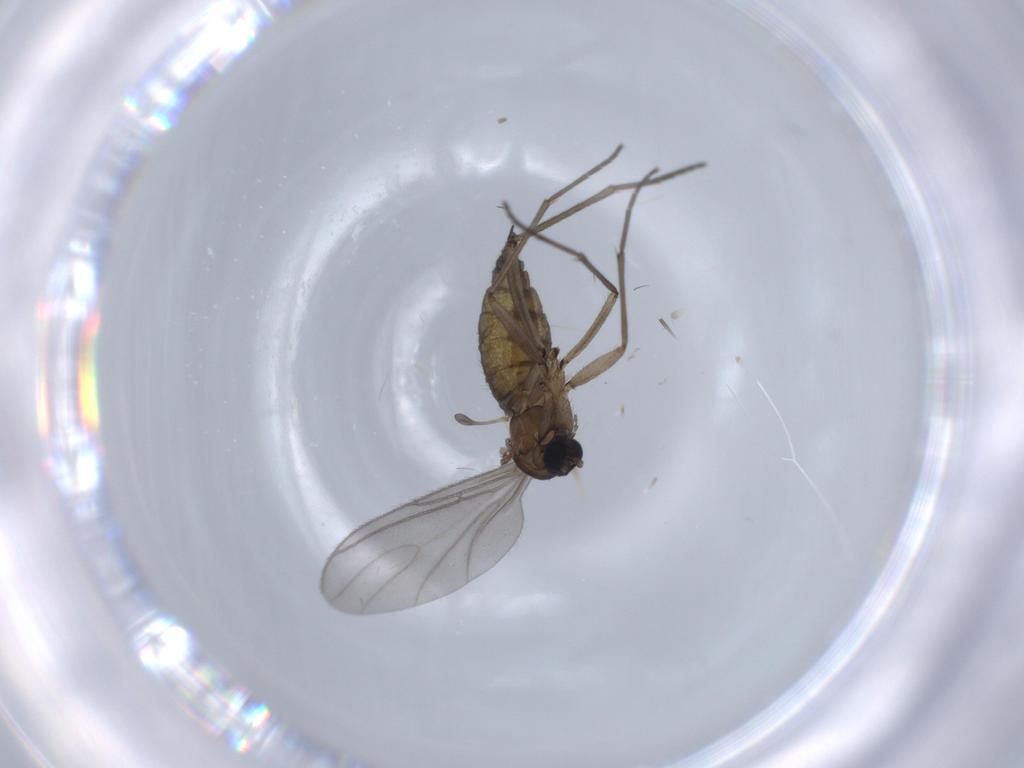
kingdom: Animalia
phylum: Arthropoda
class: Insecta
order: Diptera
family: Sciaridae
